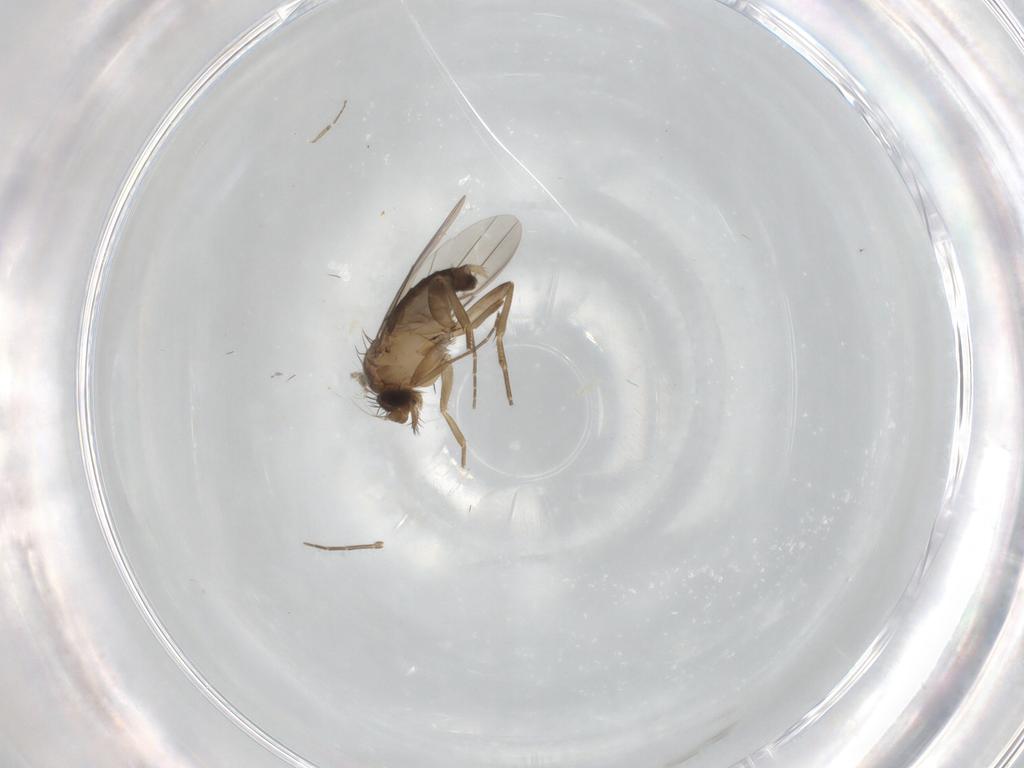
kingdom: Animalia
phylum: Arthropoda
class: Insecta
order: Diptera
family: Phoridae
